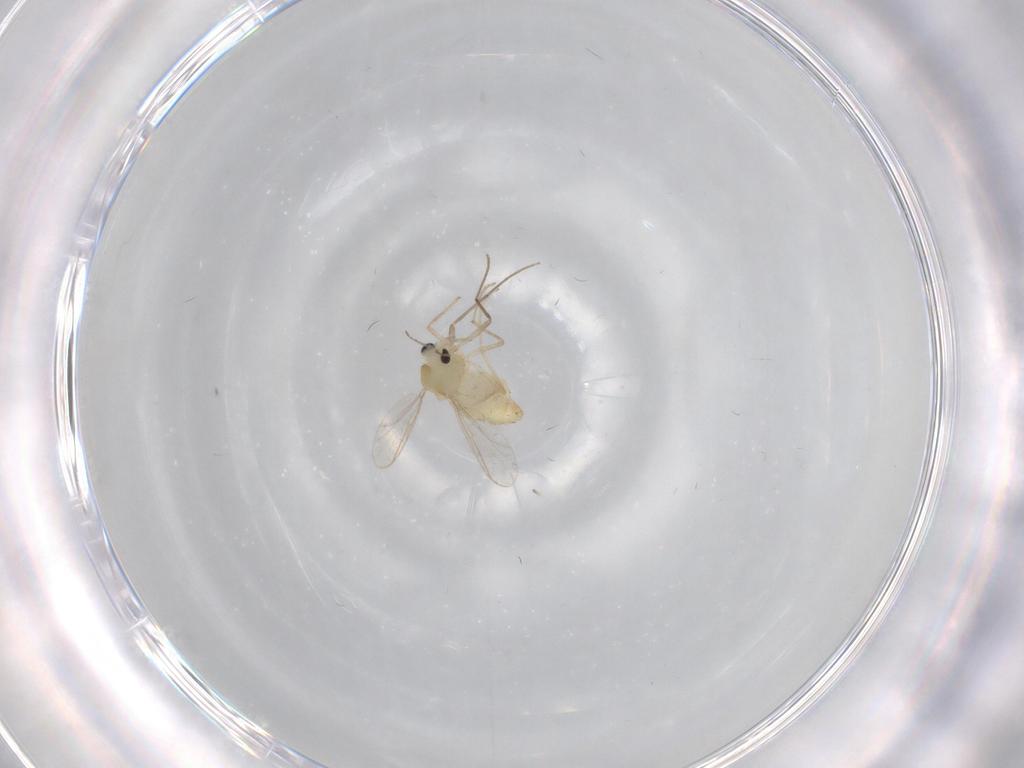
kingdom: Animalia
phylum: Arthropoda
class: Insecta
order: Diptera
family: Chironomidae
